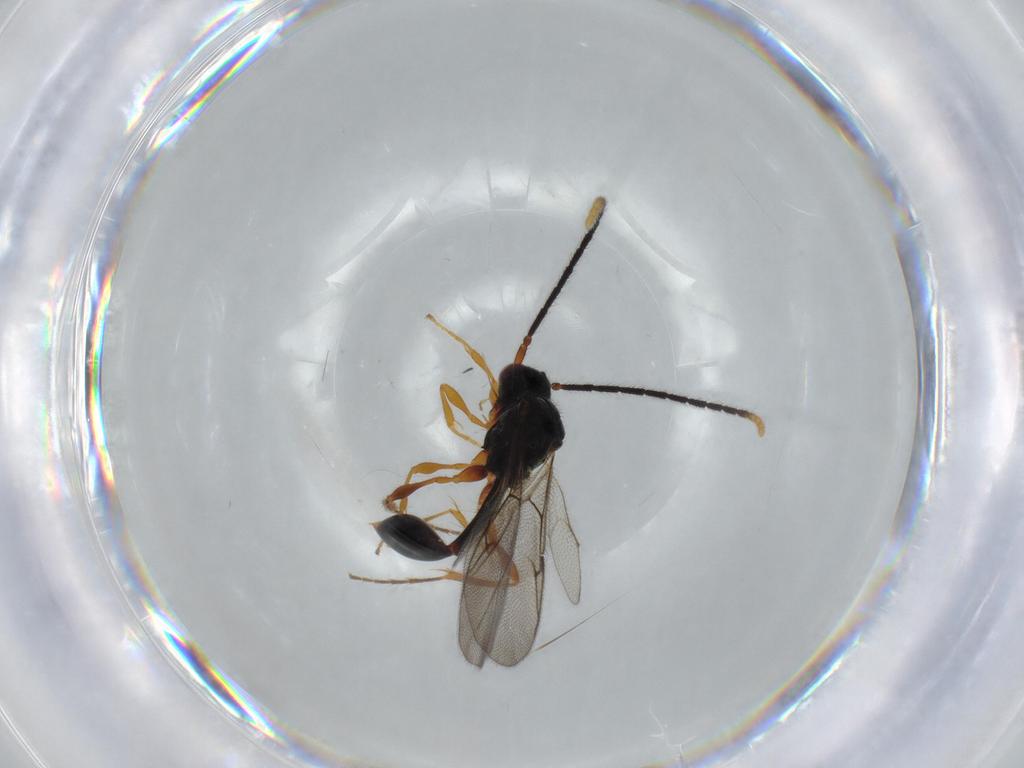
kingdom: Animalia
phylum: Arthropoda
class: Insecta
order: Hymenoptera
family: Diapriidae
